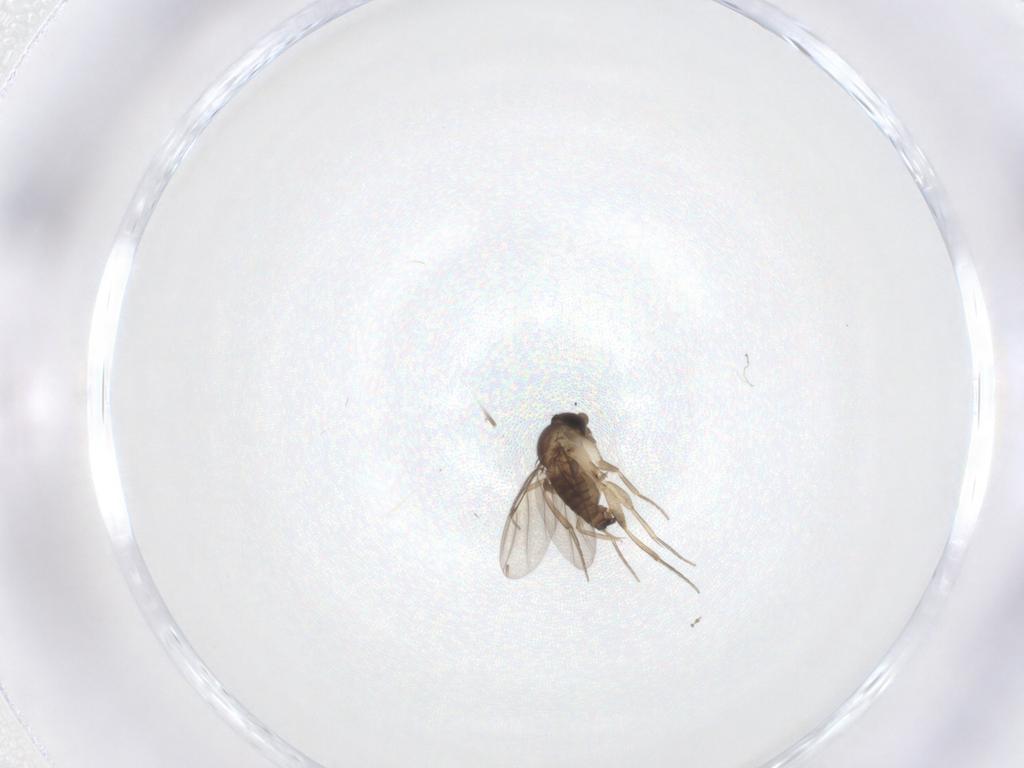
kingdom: Animalia
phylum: Arthropoda
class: Insecta
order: Diptera
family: Phoridae
